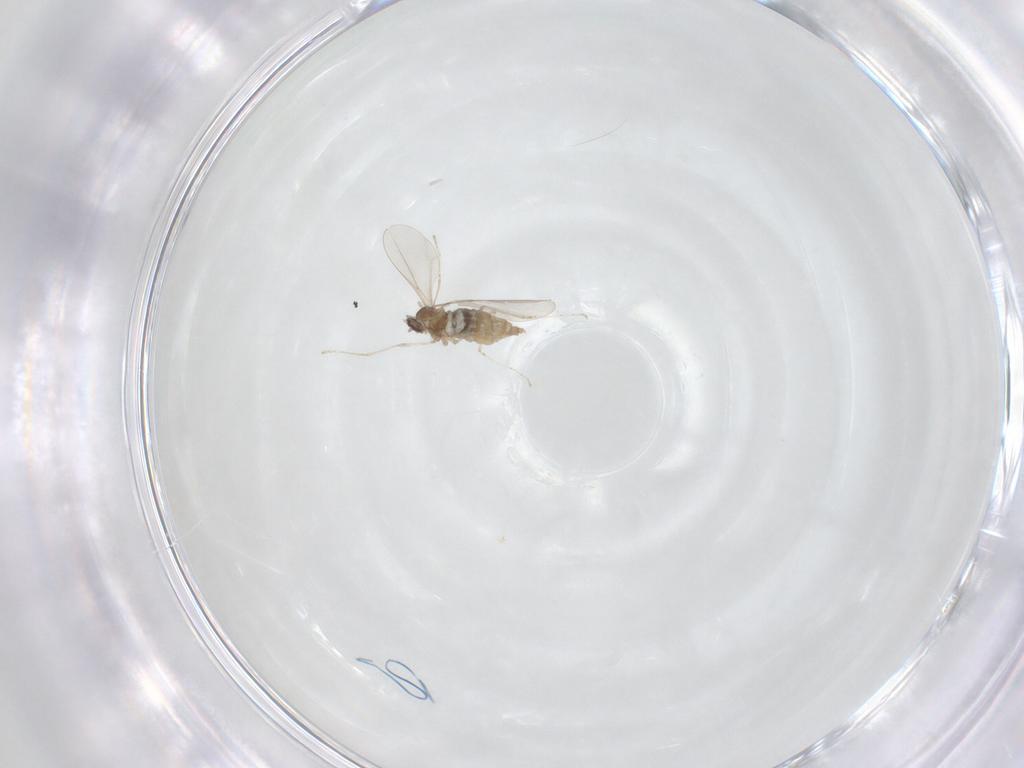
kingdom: Animalia
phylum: Arthropoda
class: Insecta
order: Diptera
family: Cecidomyiidae
